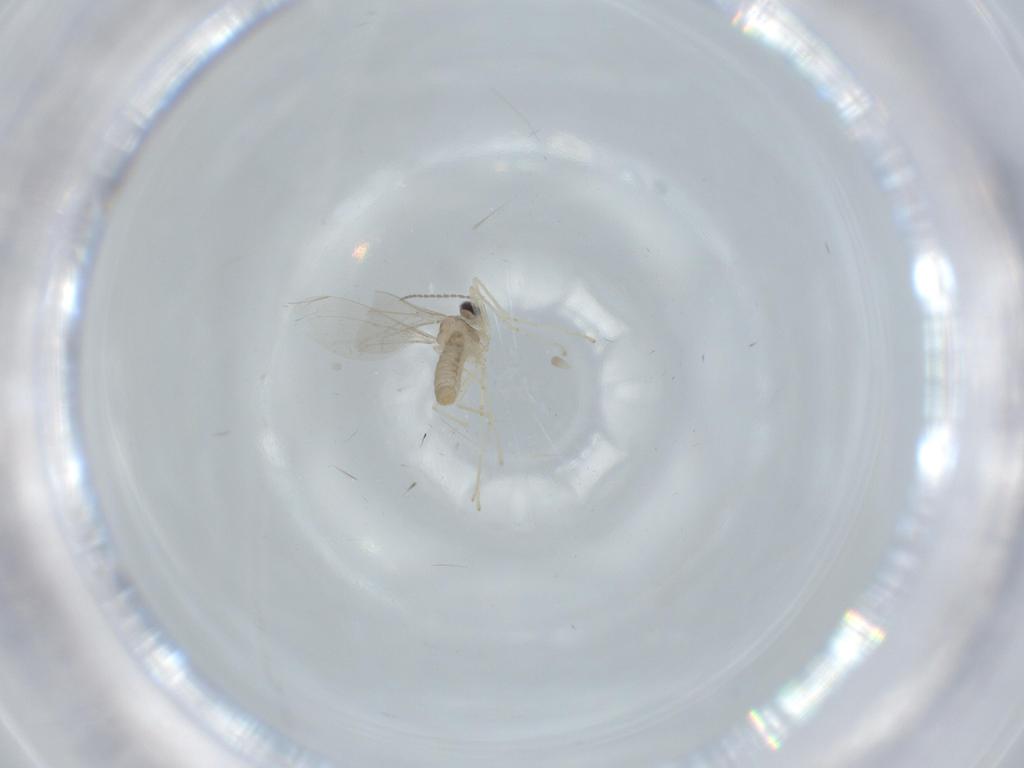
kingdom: Animalia
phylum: Arthropoda
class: Insecta
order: Diptera
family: Cecidomyiidae
